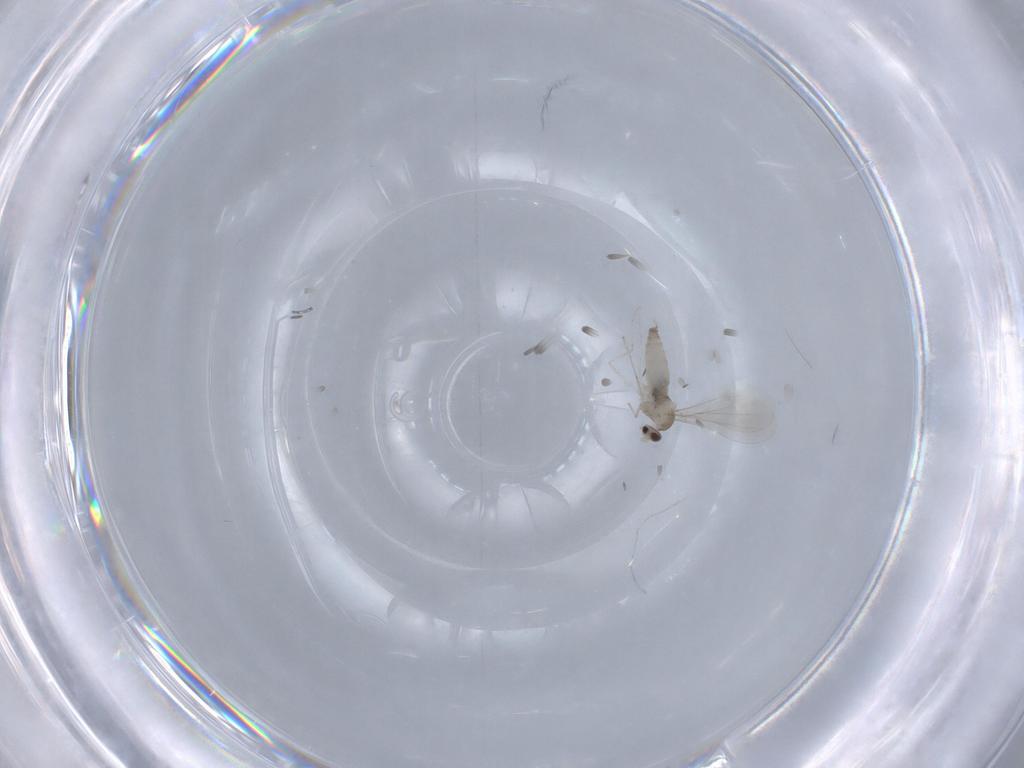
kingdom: Animalia
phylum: Arthropoda
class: Insecta
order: Diptera
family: Cecidomyiidae
